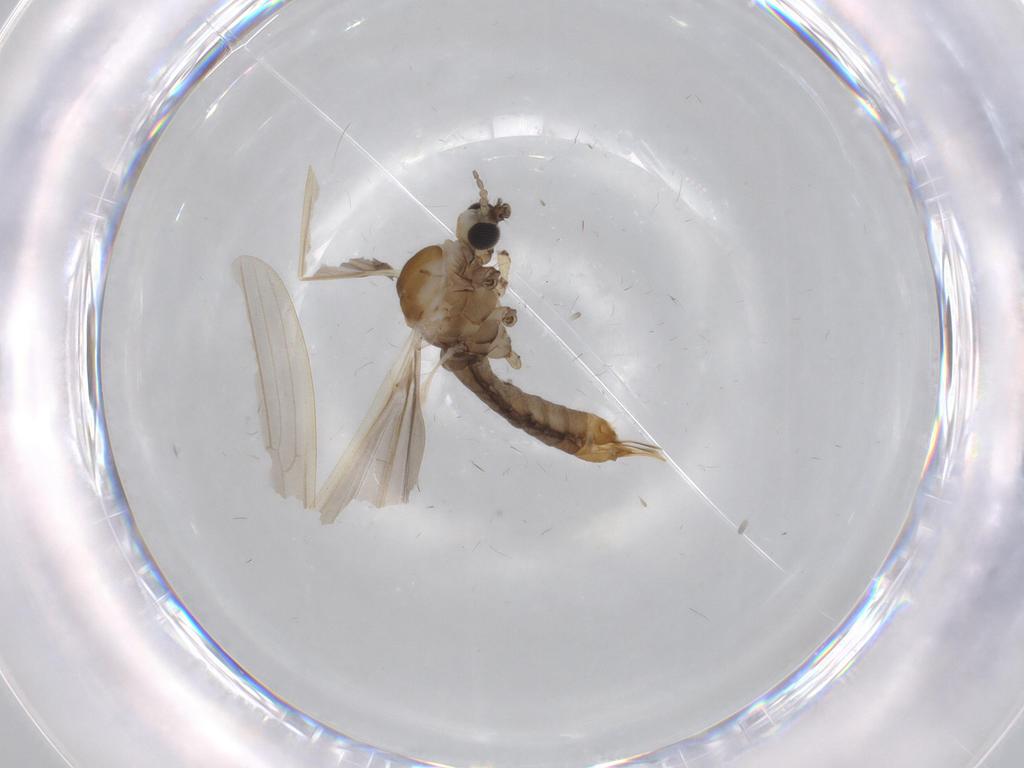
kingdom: Animalia
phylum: Arthropoda
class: Insecta
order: Diptera
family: Limoniidae
